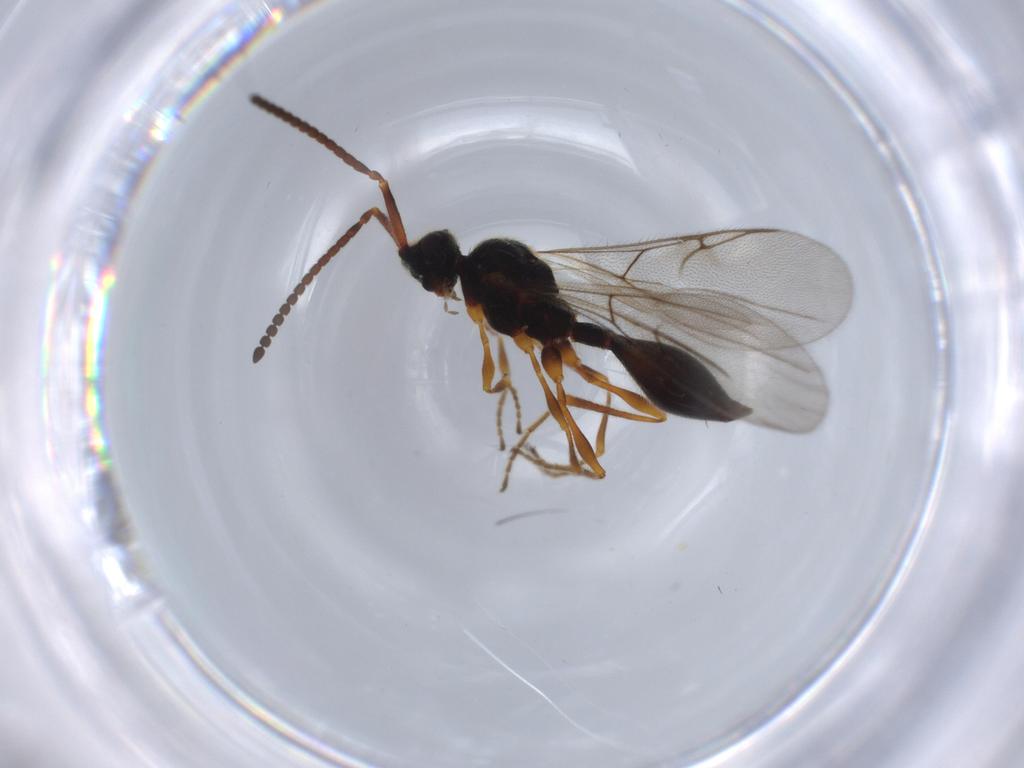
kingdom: Animalia
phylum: Arthropoda
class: Insecta
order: Hymenoptera
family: Diapriidae
